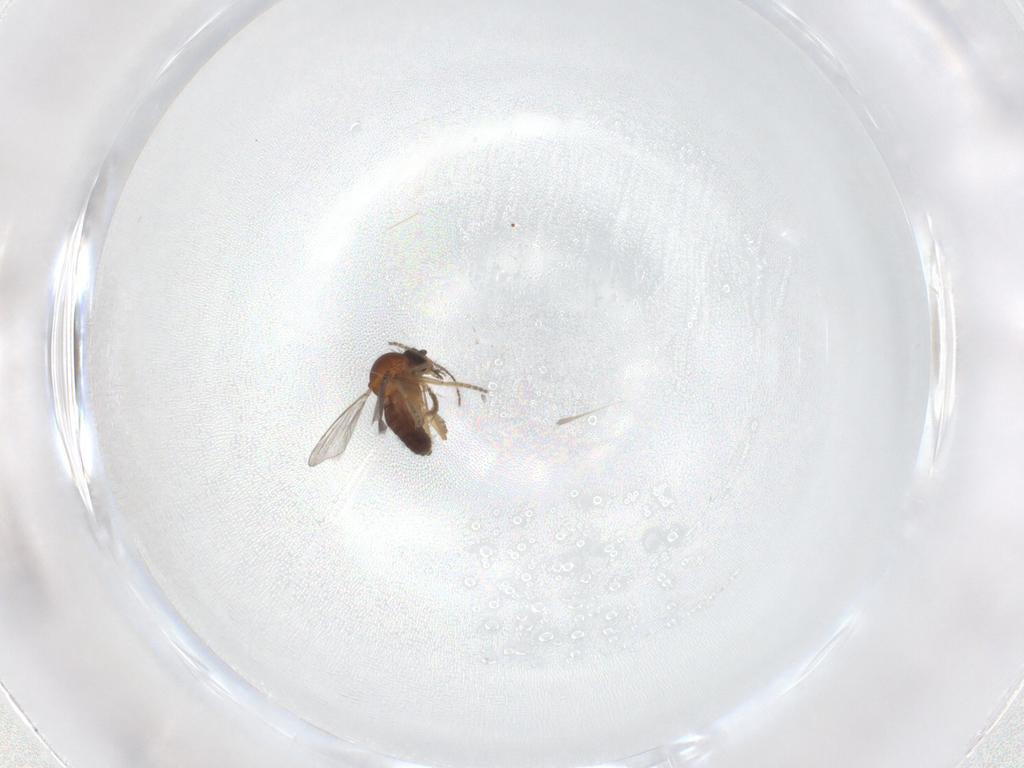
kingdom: Animalia
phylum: Arthropoda
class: Insecta
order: Diptera
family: Ceratopogonidae
